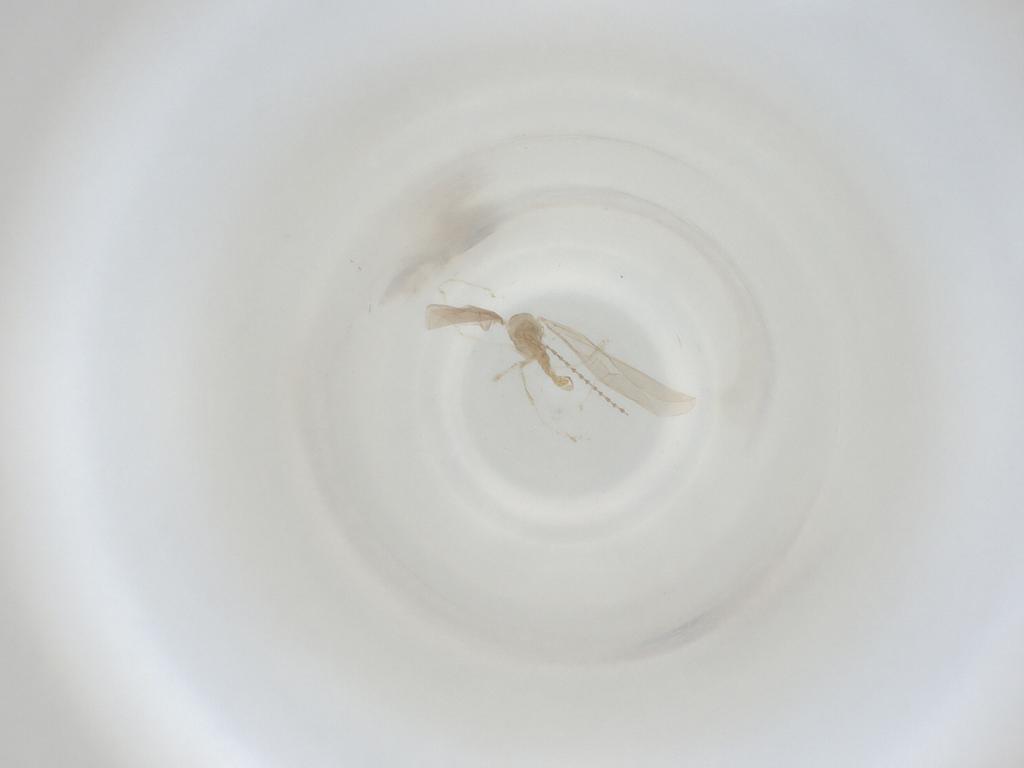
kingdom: Animalia
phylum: Arthropoda
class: Insecta
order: Diptera
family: Cecidomyiidae
